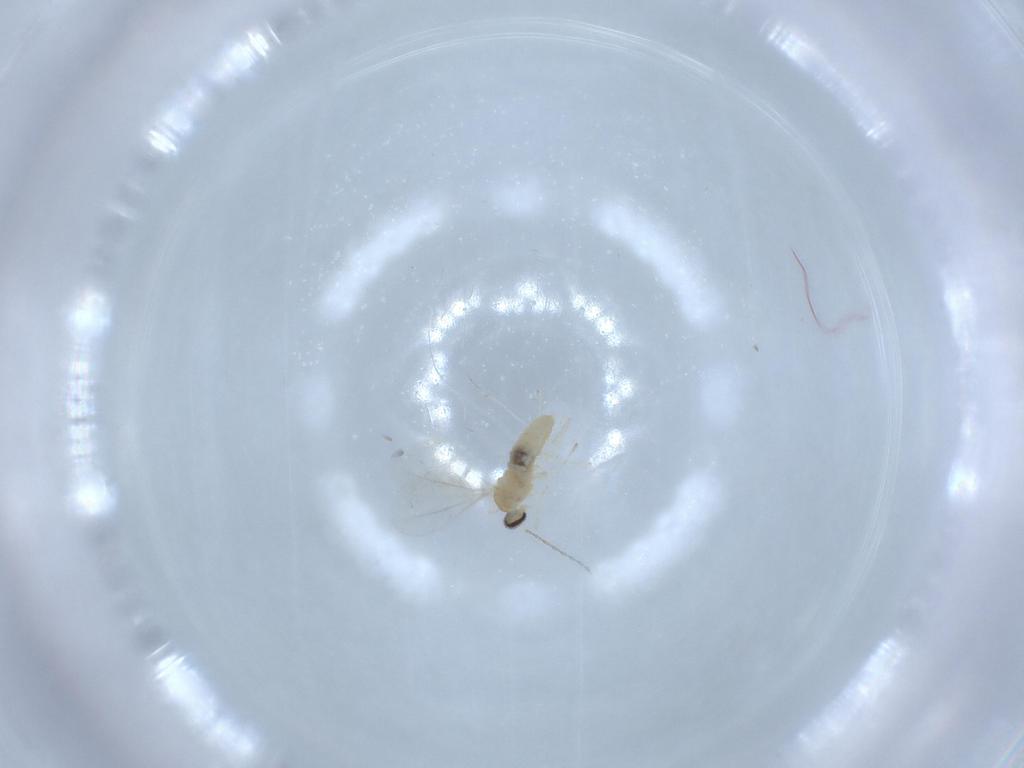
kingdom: Animalia
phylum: Arthropoda
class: Insecta
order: Diptera
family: Cecidomyiidae
